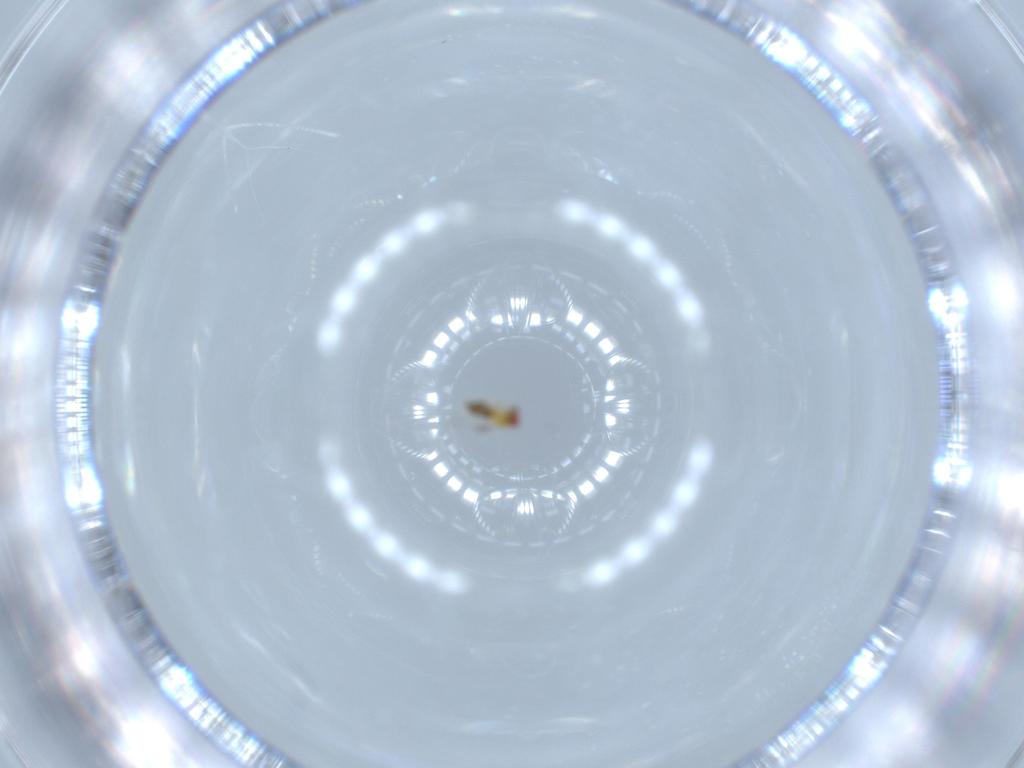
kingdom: Animalia
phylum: Arthropoda
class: Insecta
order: Hymenoptera
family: Trichogrammatidae
